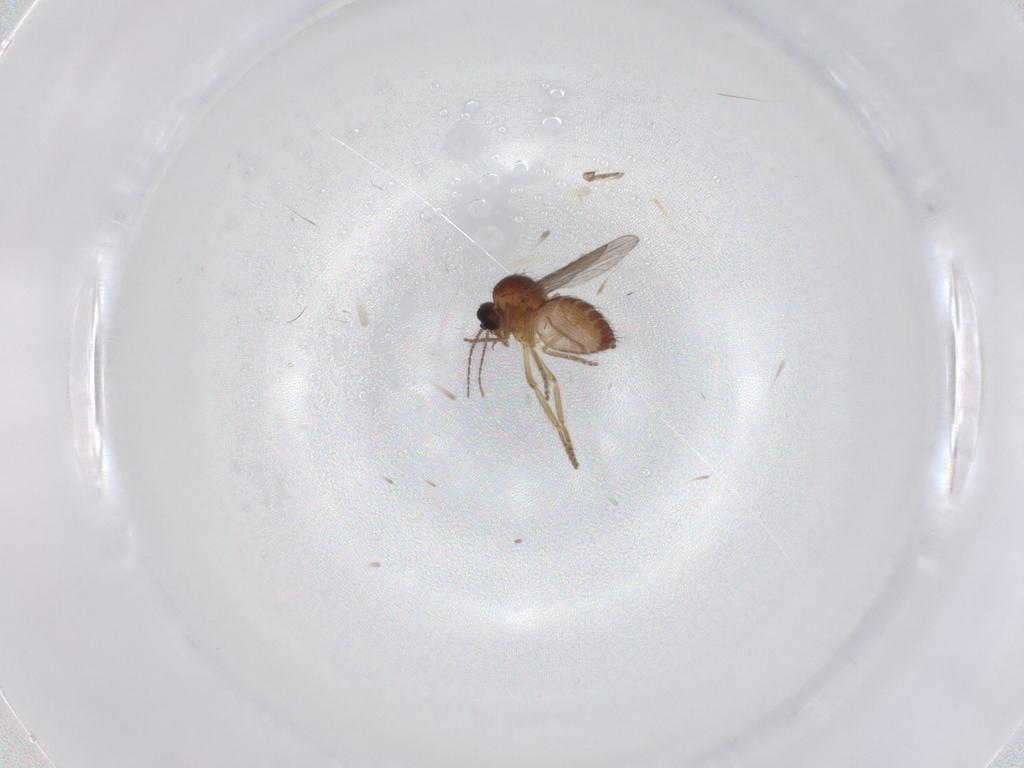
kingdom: Animalia
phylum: Arthropoda
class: Insecta
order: Diptera
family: Ceratopogonidae
